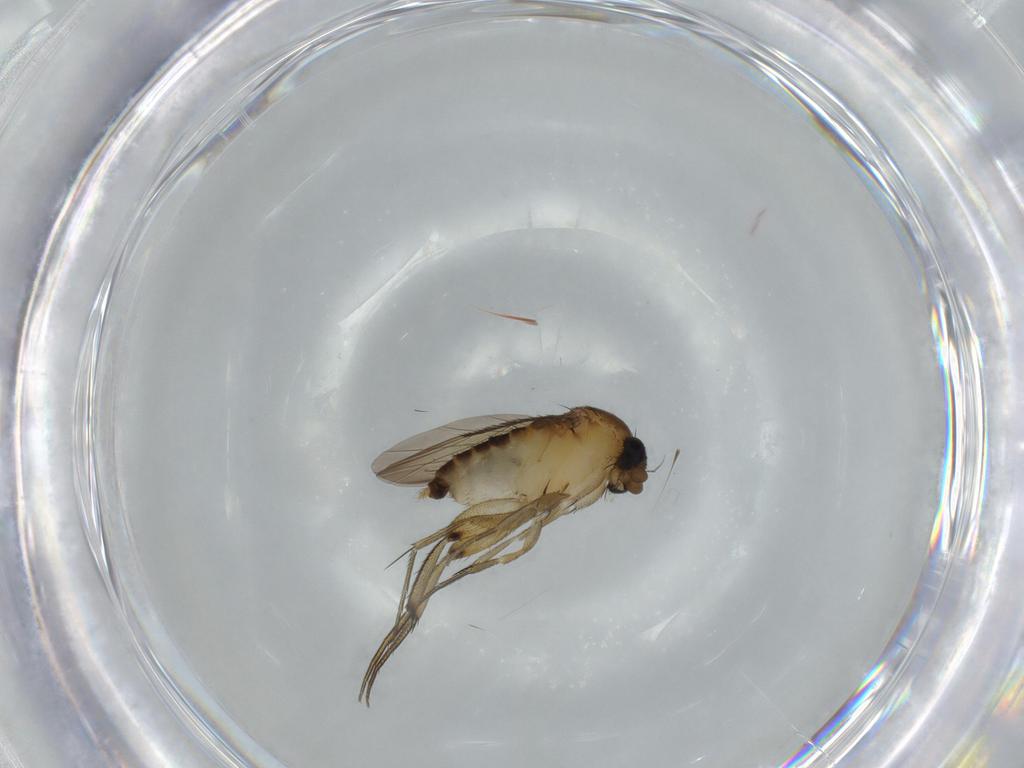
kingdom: Animalia
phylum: Arthropoda
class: Insecta
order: Diptera
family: Phoridae
